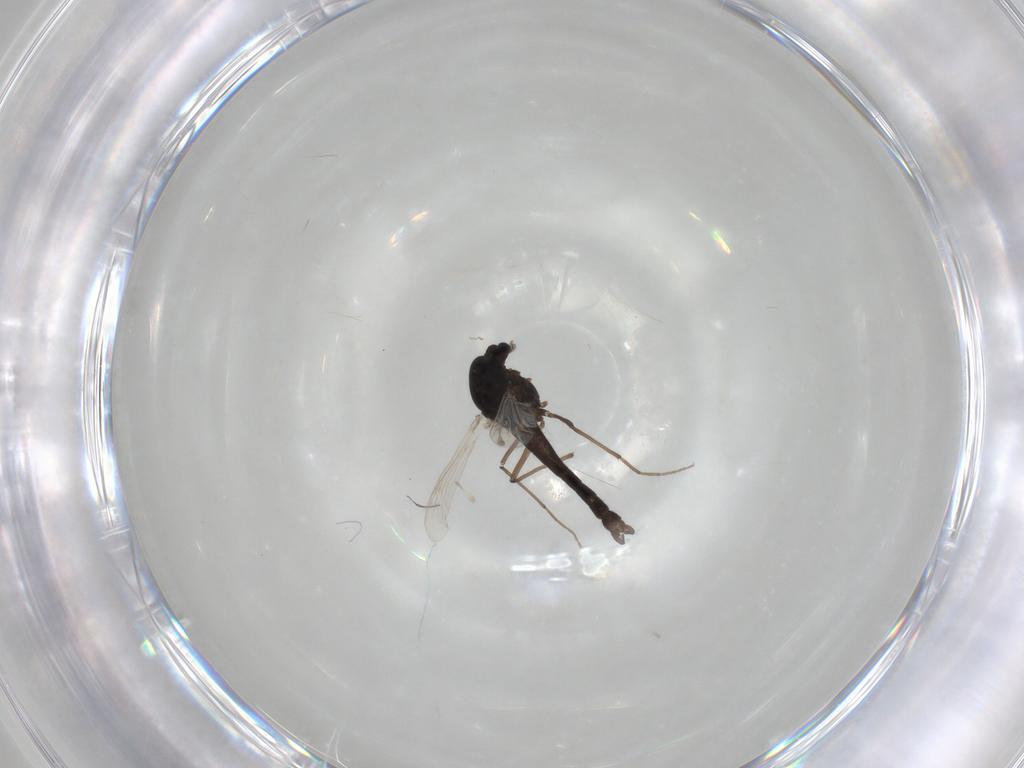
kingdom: Animalia
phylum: Arthropoda
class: Insecta
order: Diptera
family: Chironomidae
